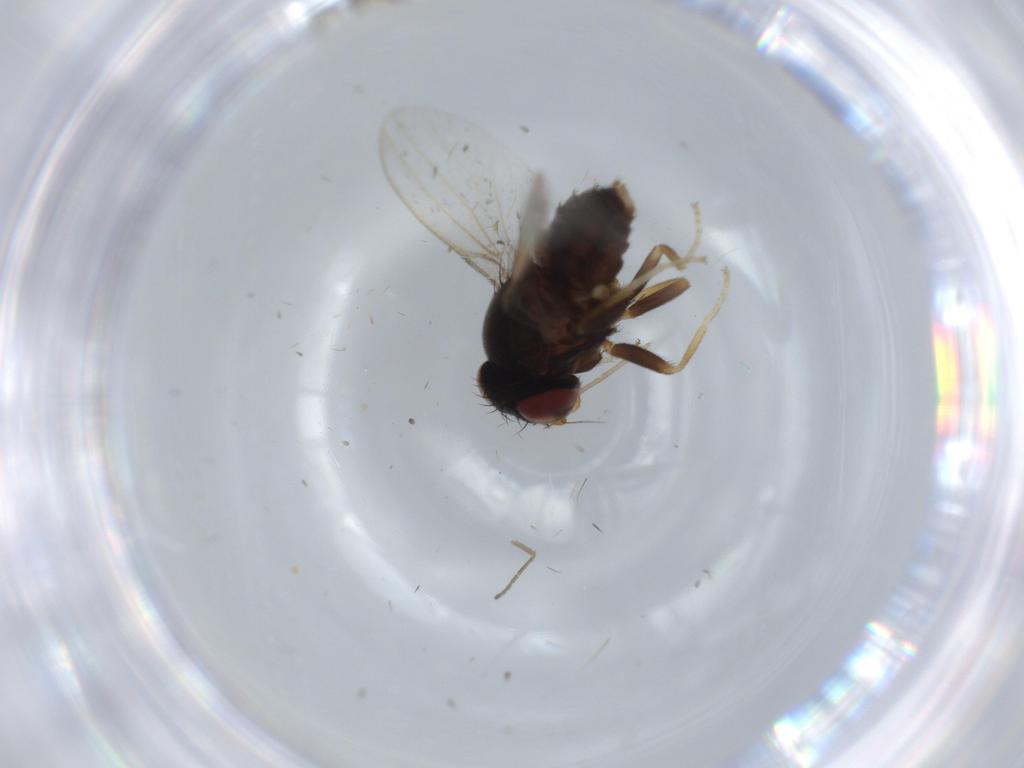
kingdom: Animalia
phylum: Arthropoda
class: Insecta
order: Diptera
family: Milichiidae
